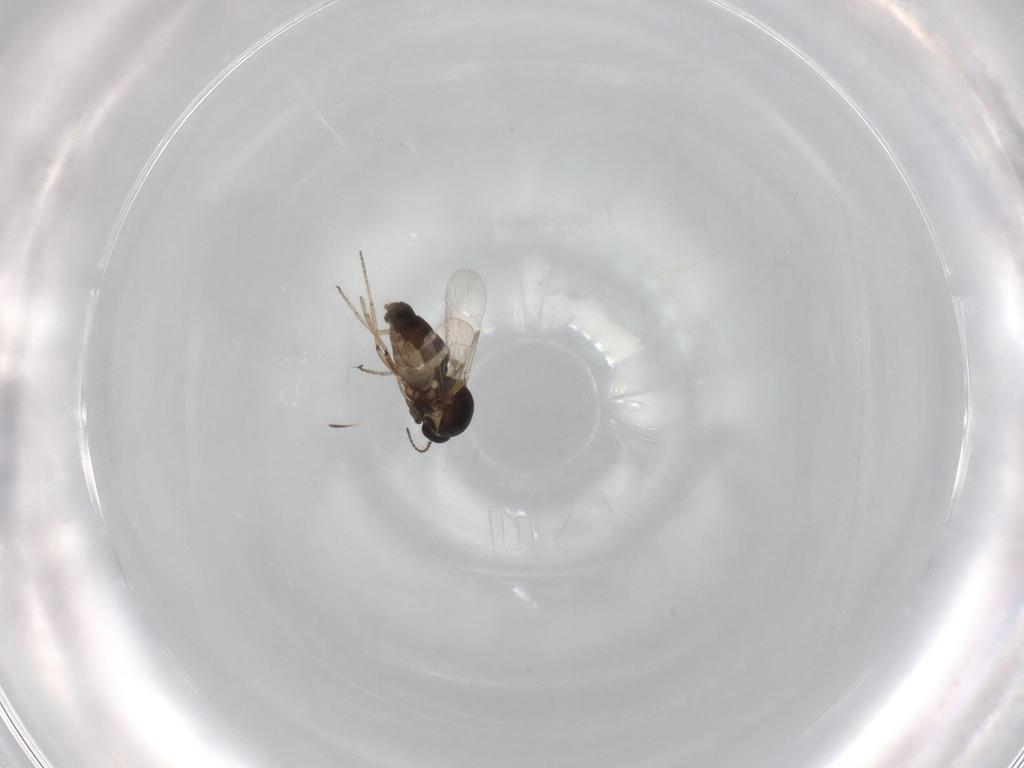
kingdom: Animalia
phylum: Arthropoda
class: Insecta
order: Diptera
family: Ceratopogonidae
